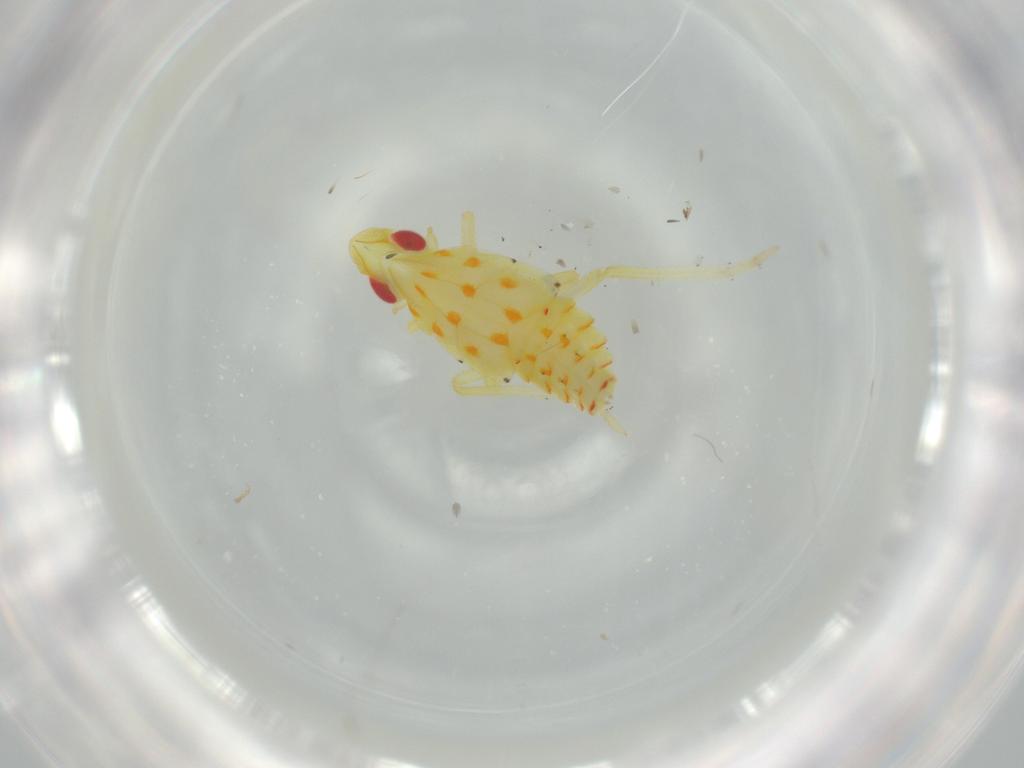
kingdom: Animalia
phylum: Arthropoda
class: Insecta
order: Hemiptera
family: Tropiduchidae
